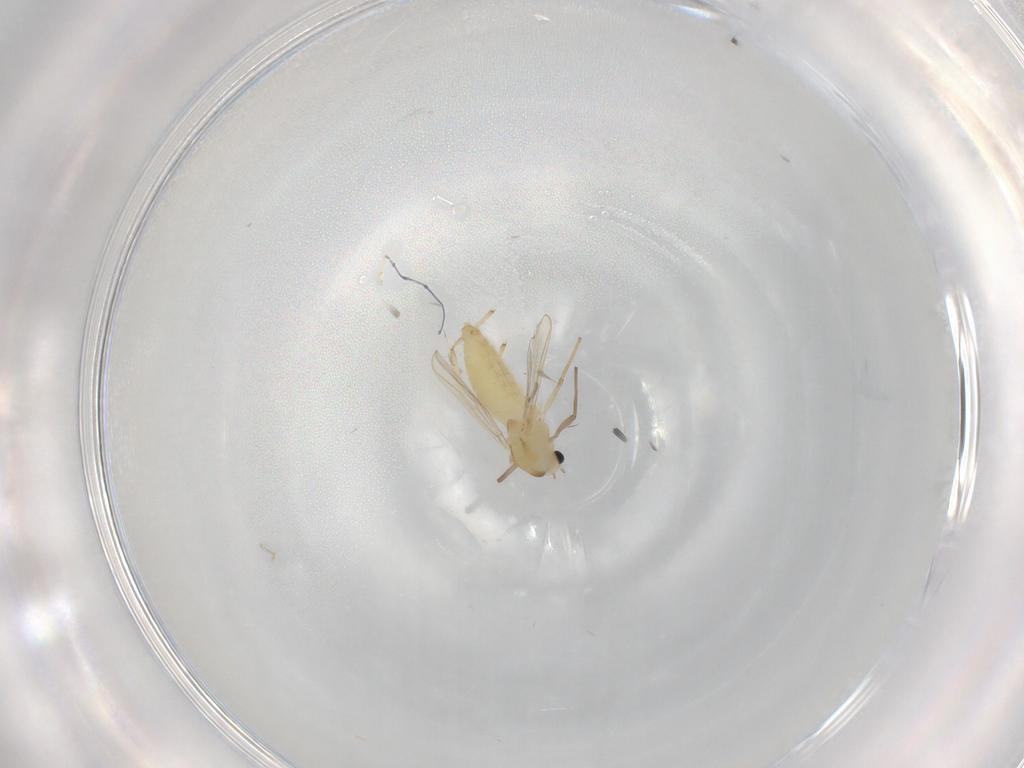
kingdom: Animalia
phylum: Arthropoda
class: Insecta
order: Diptera
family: Chironomidae
